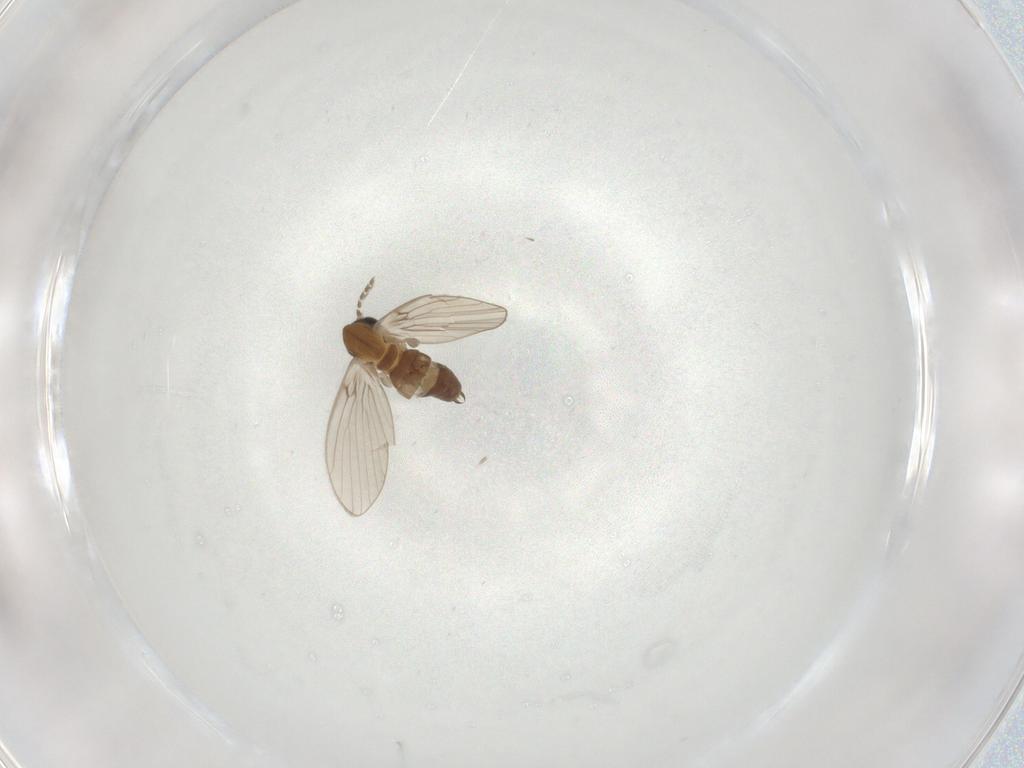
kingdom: Animalia
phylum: Arthropoda
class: Insecta
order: Diptera
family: Psychodidae
